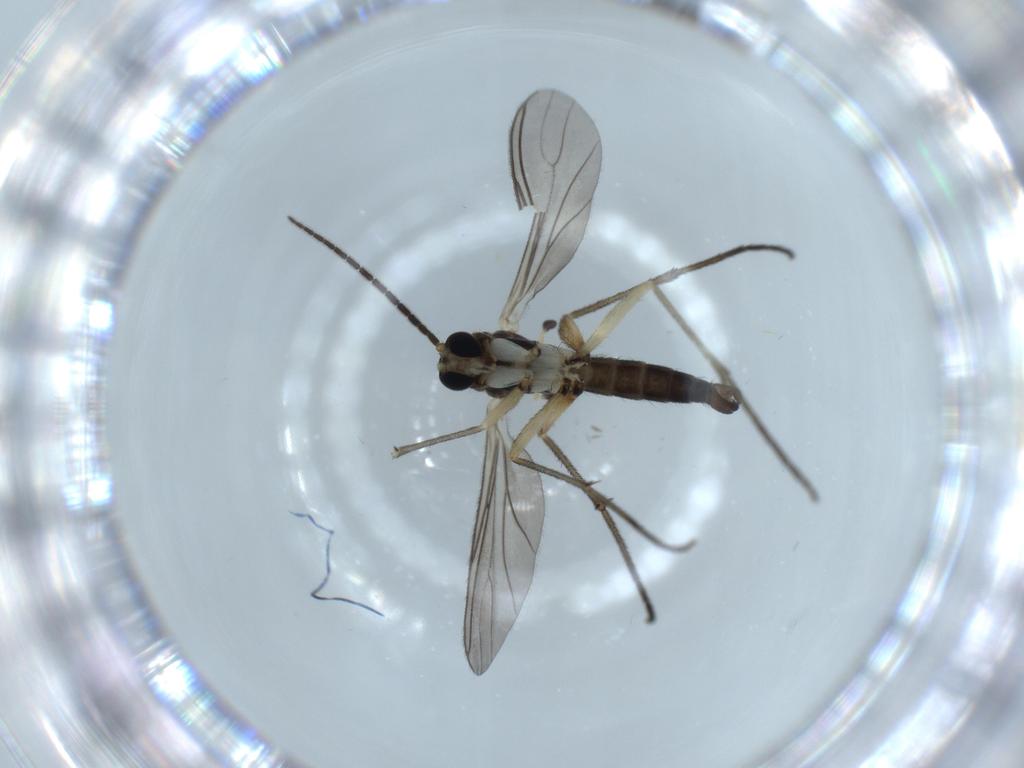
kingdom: Animalia
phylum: Arthropoda
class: Insecta
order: Diptera
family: Sciaridae
